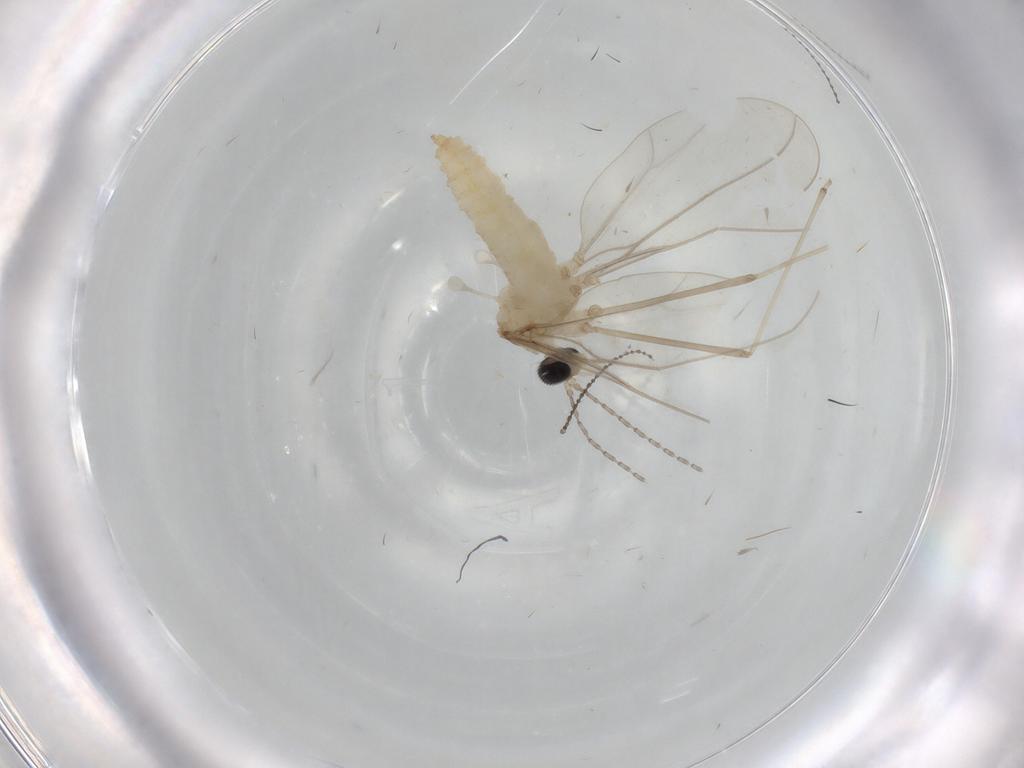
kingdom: Animalia
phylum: Arthropoda
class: Insecta
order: Diptera
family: Cecidomyiidae
